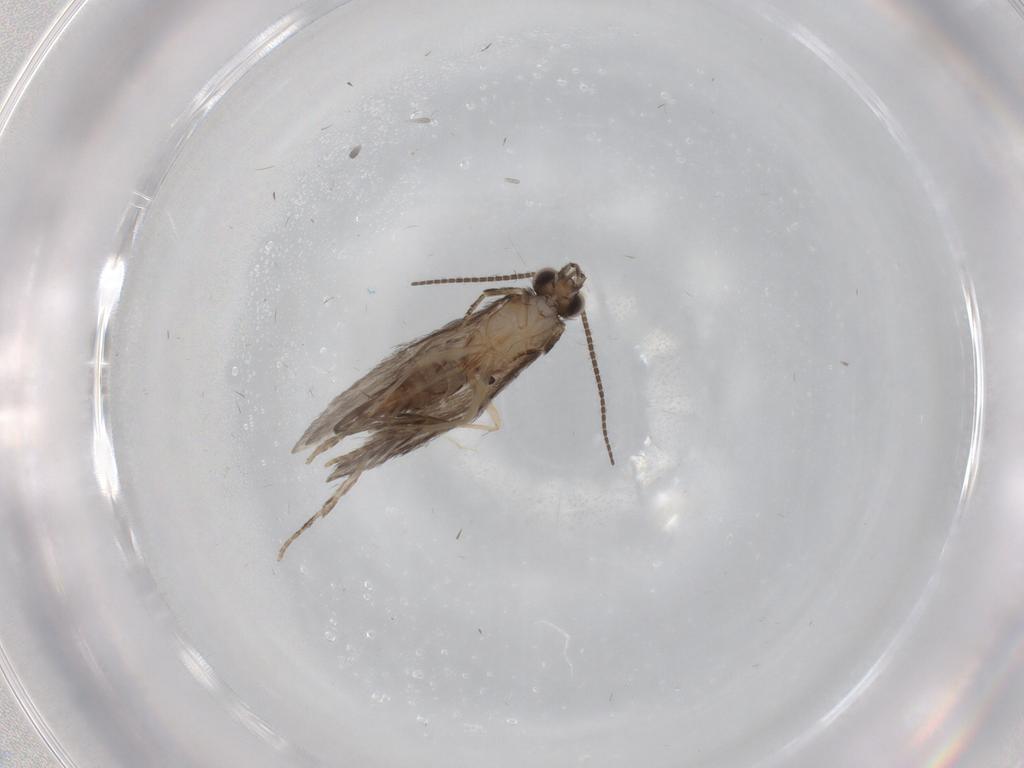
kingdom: Animalia
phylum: Arthropoda
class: Insecta
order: Trichoptera
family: Hydroptilidae
